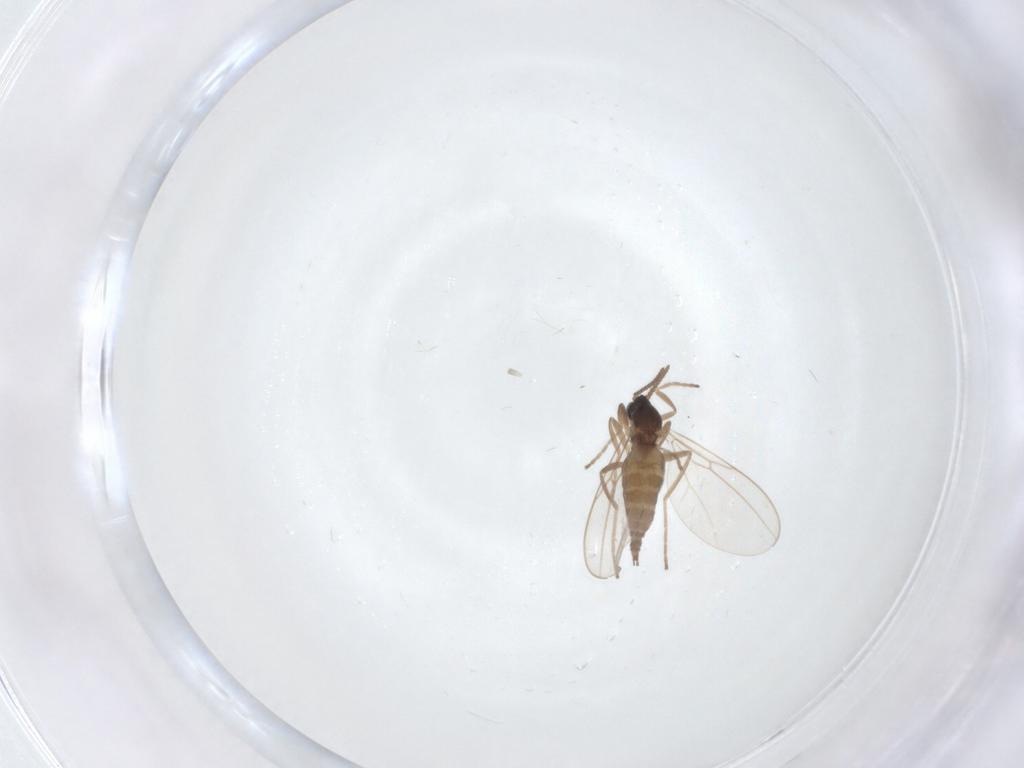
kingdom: Animalia
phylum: Arthropoda
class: Insecta
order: Diptera
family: Cecidomyiidae
